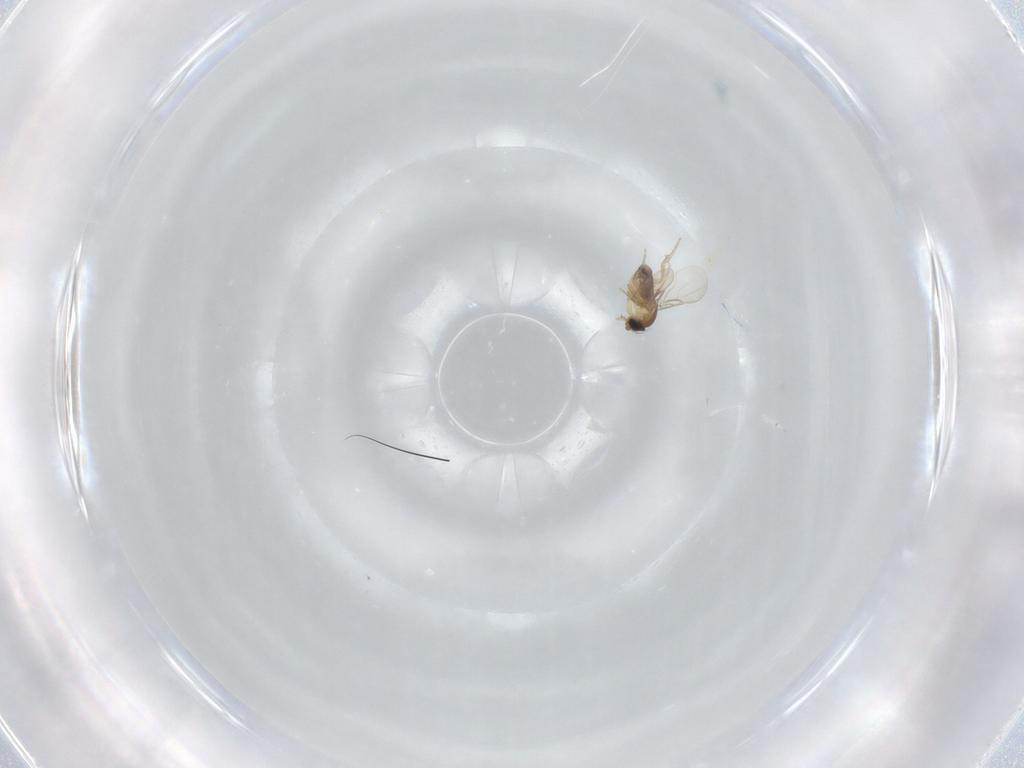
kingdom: Animalia
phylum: Arthropoda
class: Insecta
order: Diptera
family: Phoridae
